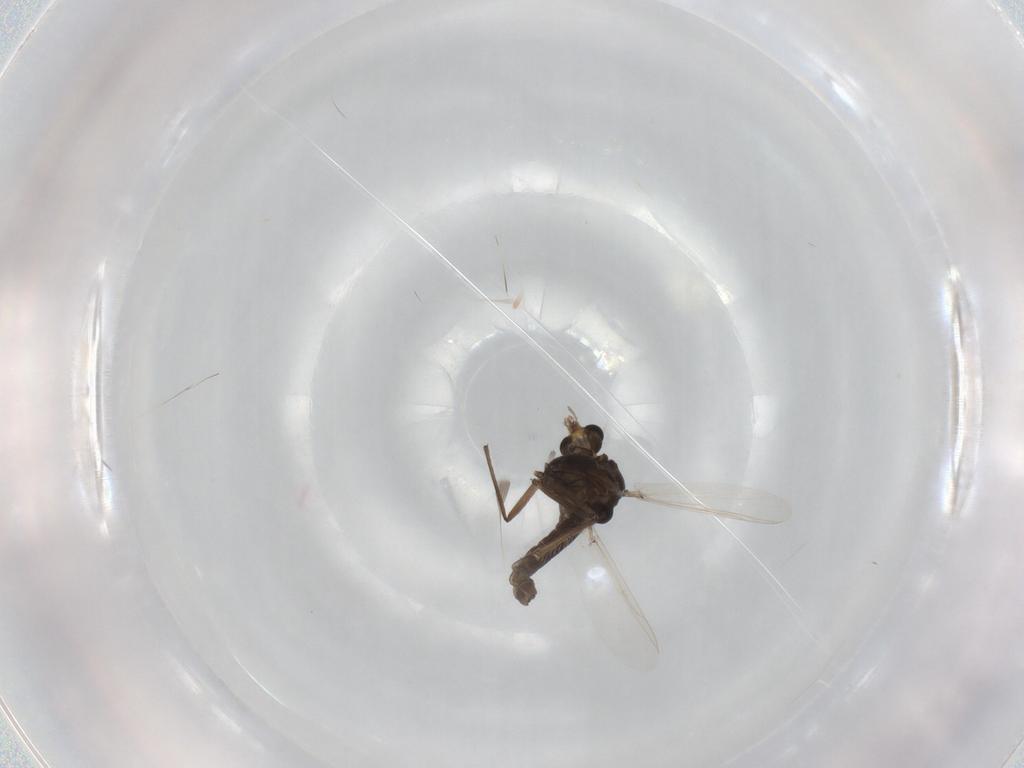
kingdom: Animalia
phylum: Arthropoda
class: Insecta
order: Diptera
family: Chironomidae
